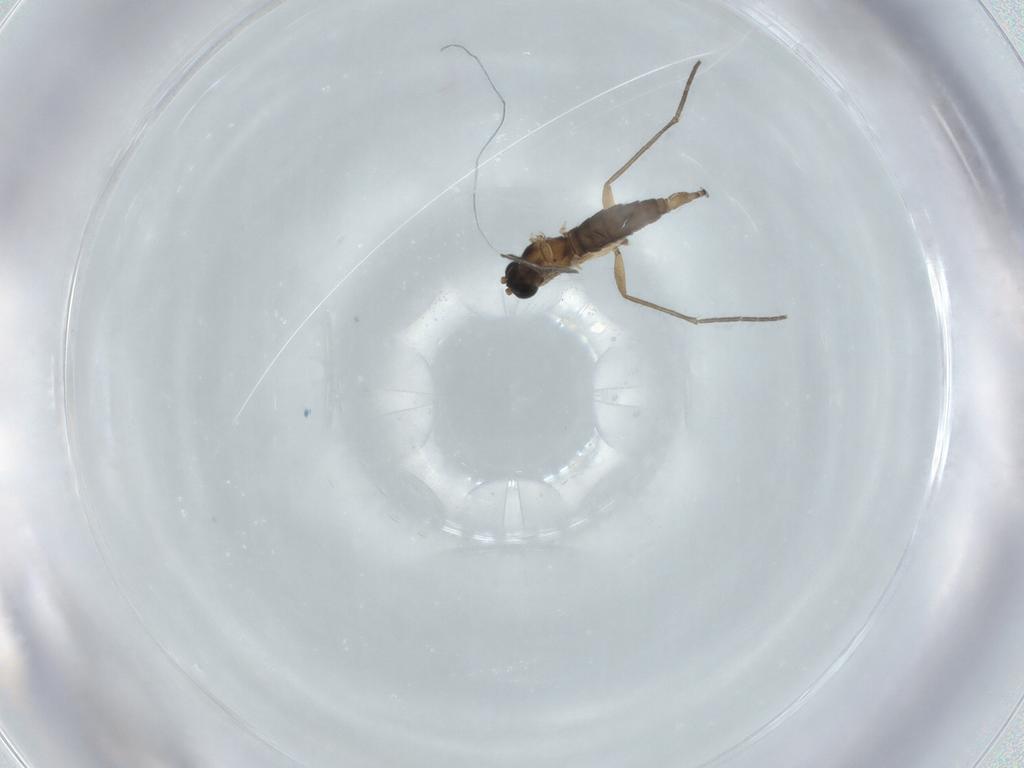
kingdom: Animalia
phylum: Arthropoda
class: Insecta
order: Diptera
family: Sciaridae
